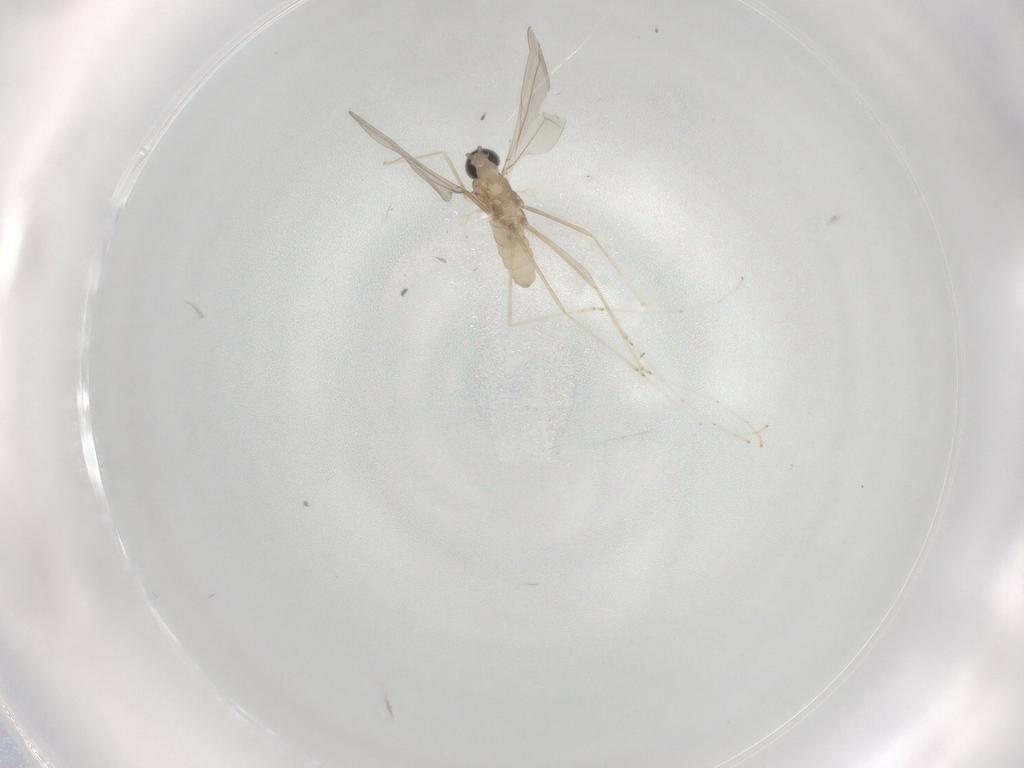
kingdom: Animalia
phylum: Arthropoda
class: Insecta
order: Diptera
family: Cecidomyiidae
